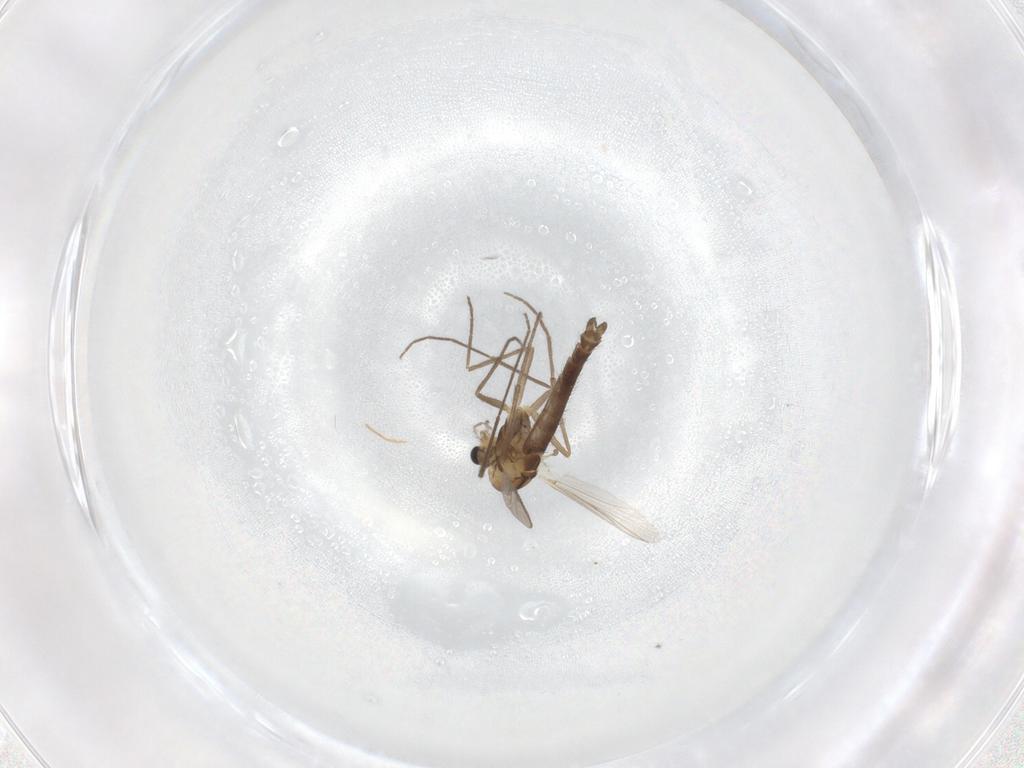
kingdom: Animalia
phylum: Arthropoda
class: Insecta
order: Diptera
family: Chironomidae
